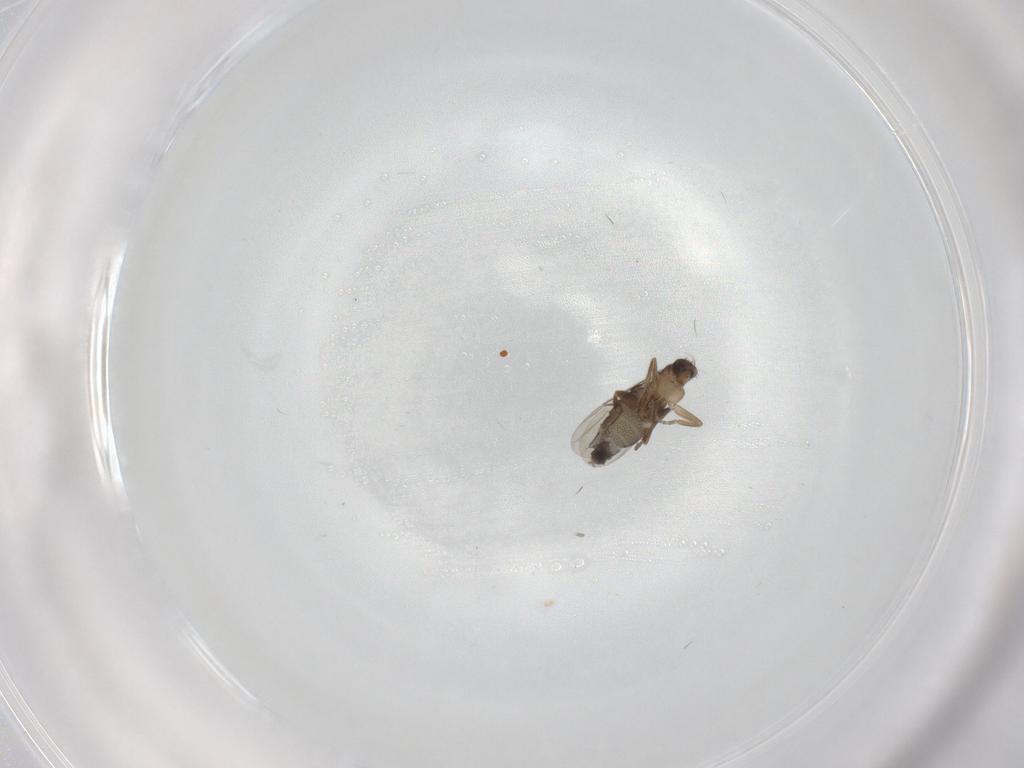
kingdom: Animalia
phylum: Arthropoda
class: Insecta
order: Diptera
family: Phoridae
